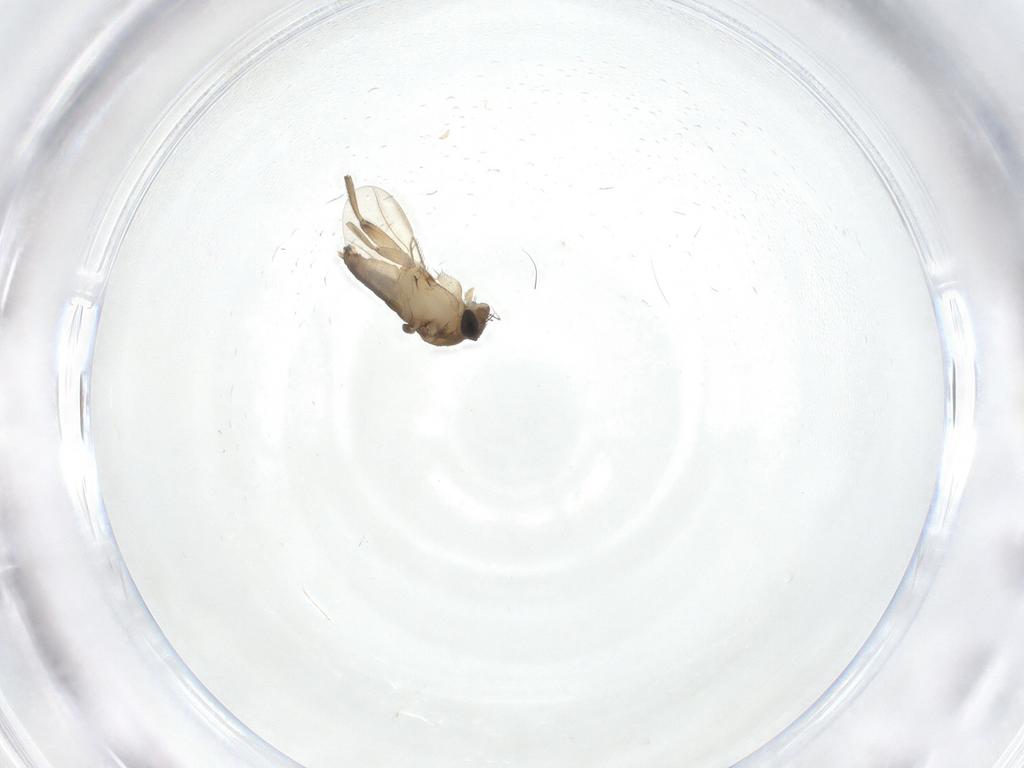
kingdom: Animalia
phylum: Arthropoda
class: Insecta
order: Diptera
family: Phoridae
